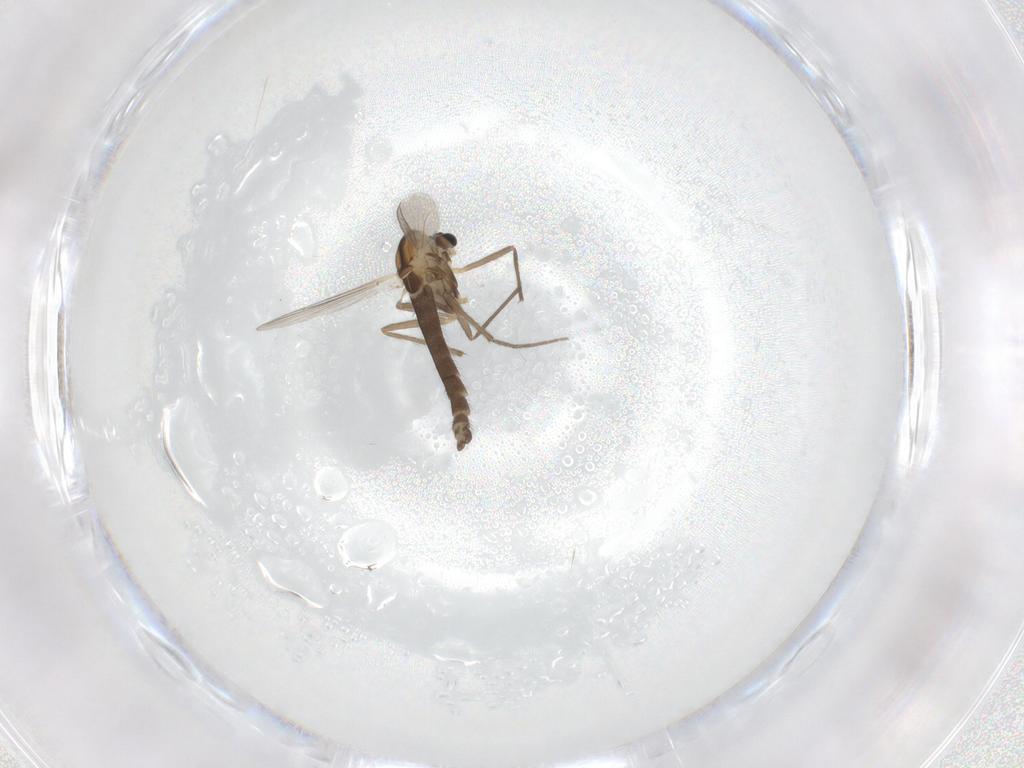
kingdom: Animalia
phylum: Arthropoda
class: Insecta
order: Diptera
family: Chironomidae
